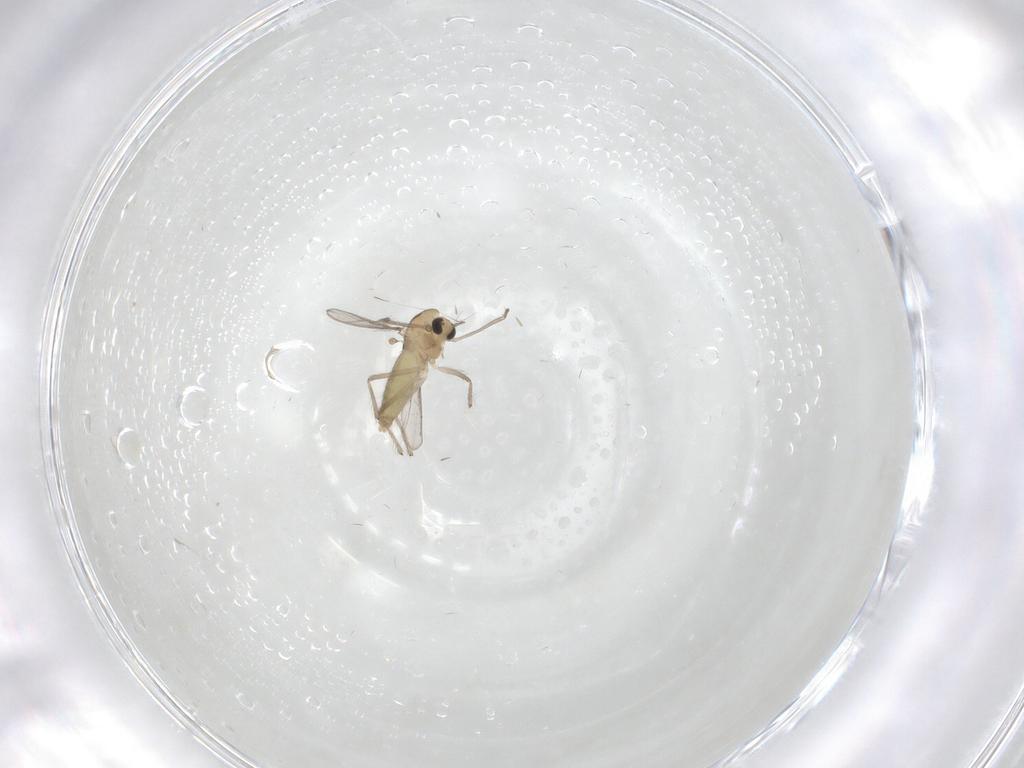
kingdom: Animalia
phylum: Arthropoda
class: Insecta
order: Diptera
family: Chironomidae
